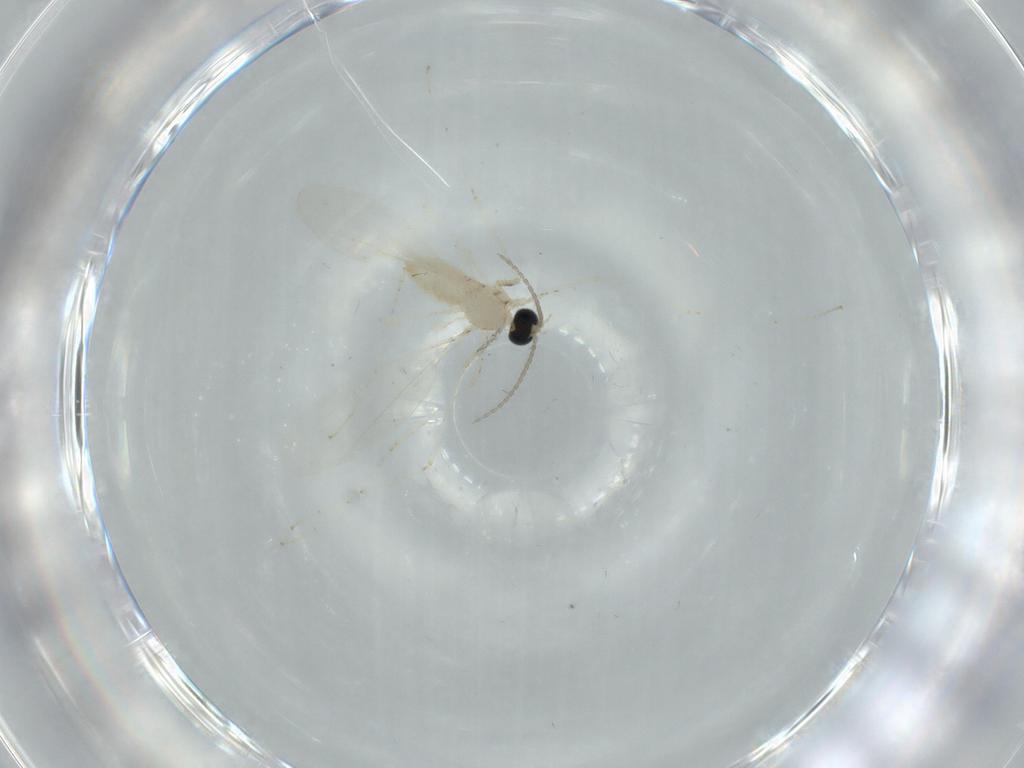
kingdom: Animalia
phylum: Arthropoda
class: Insecta
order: Diptera
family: Cecidomyiidae
